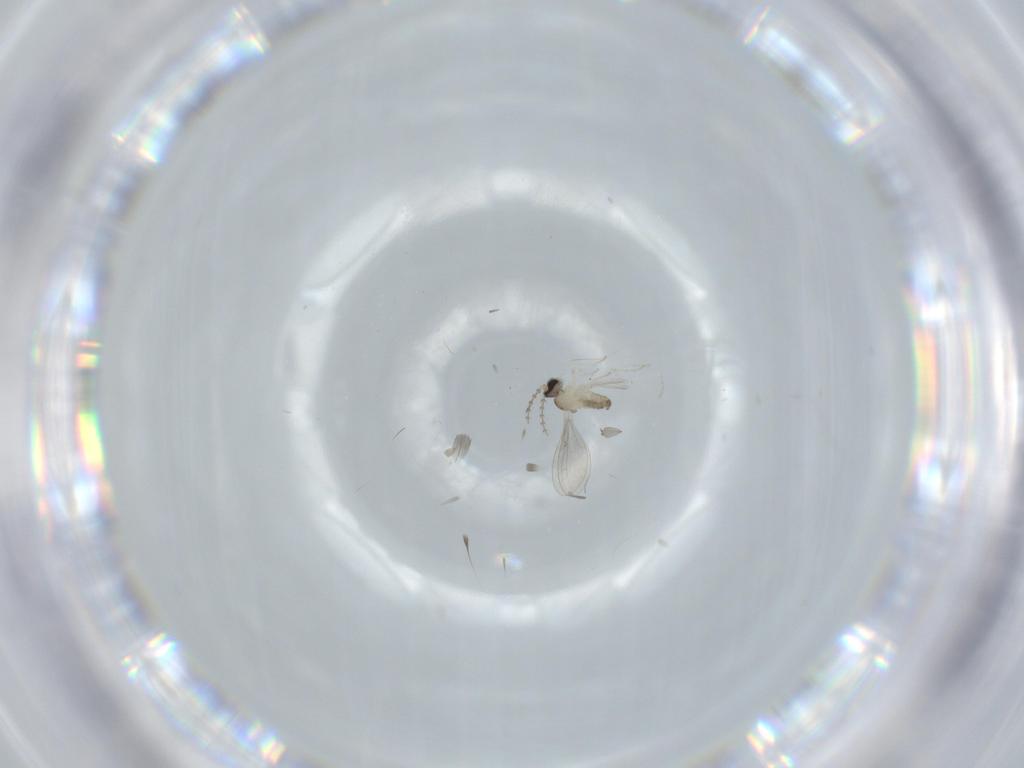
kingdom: Animalia
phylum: Arthropoda
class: Insecta
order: Diptera
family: Cecidomyiidae
